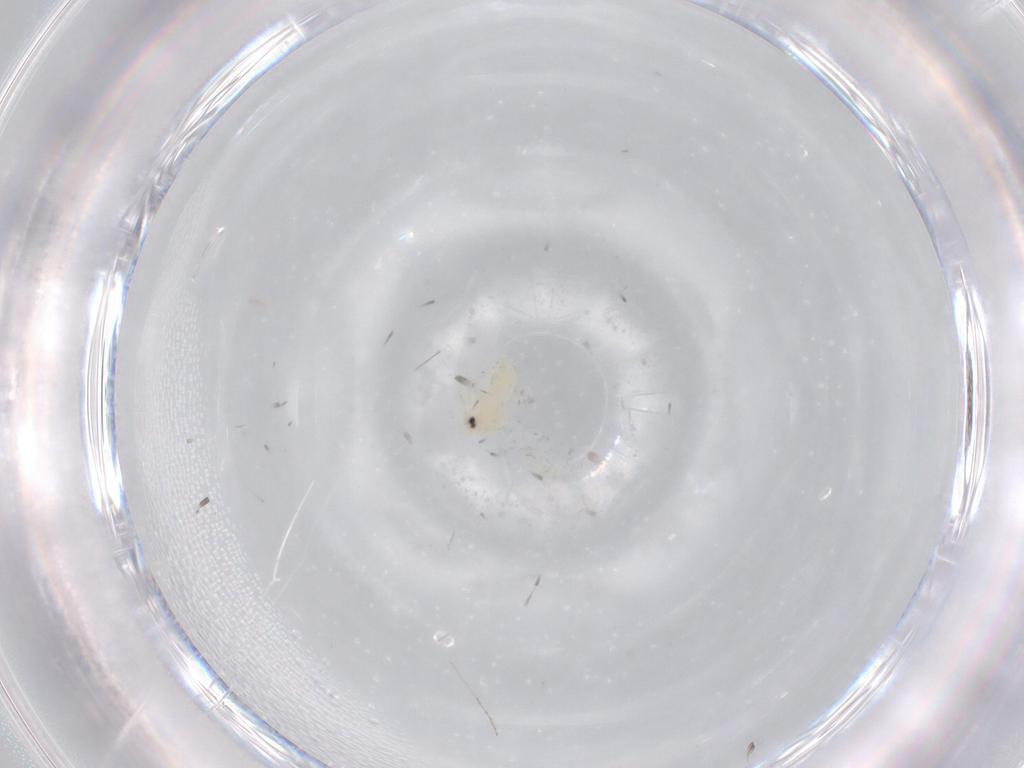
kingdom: Animalia
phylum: Arthropoda
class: Insecta
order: Hemiptera
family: Aleyrodidae
